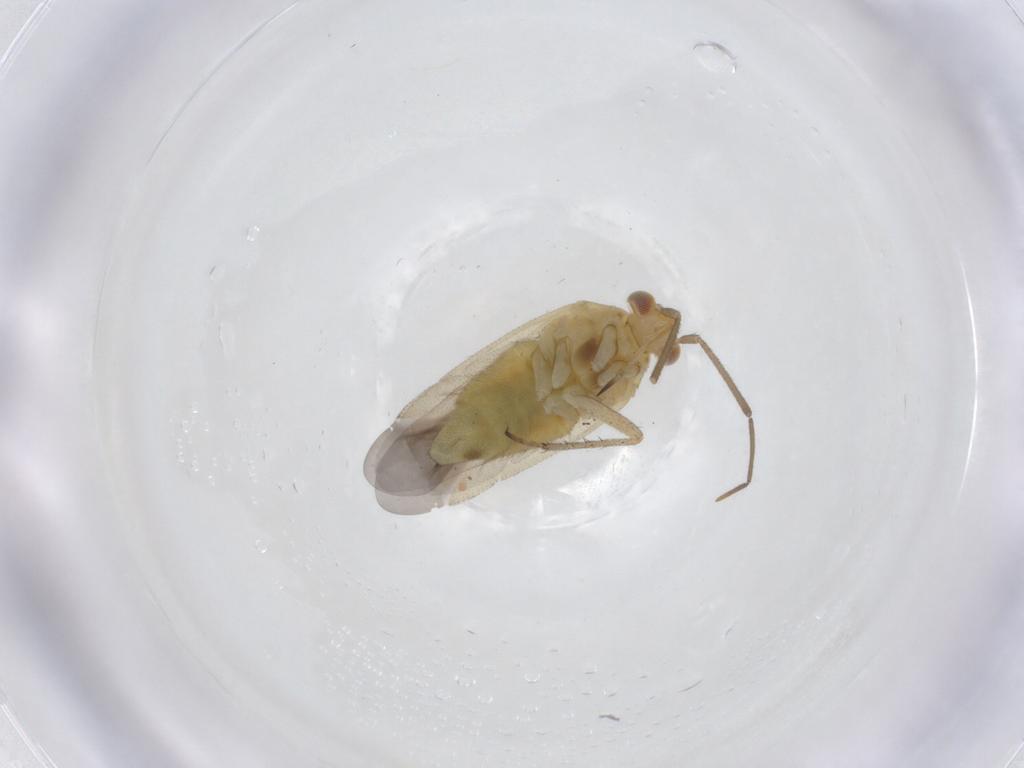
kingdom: Animalia
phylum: Arthropoda
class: Insecta
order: Hemiptera
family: Miridae
